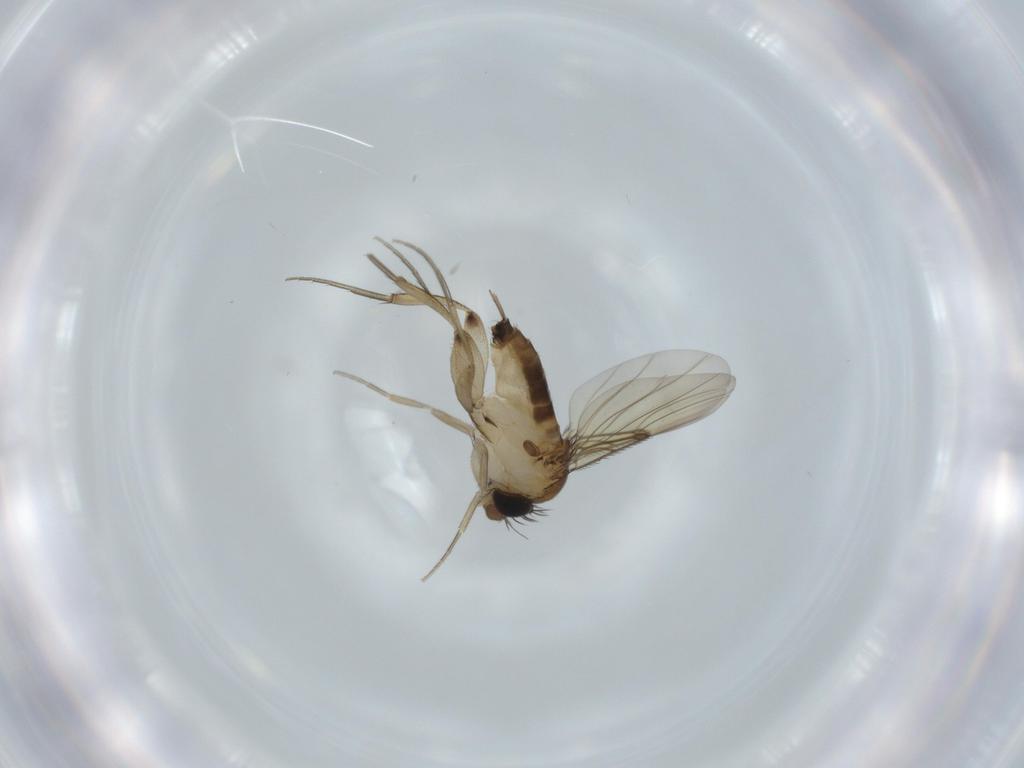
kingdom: Animalia
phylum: Arthropoda
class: Insecta
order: Diptera
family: Phoridae
